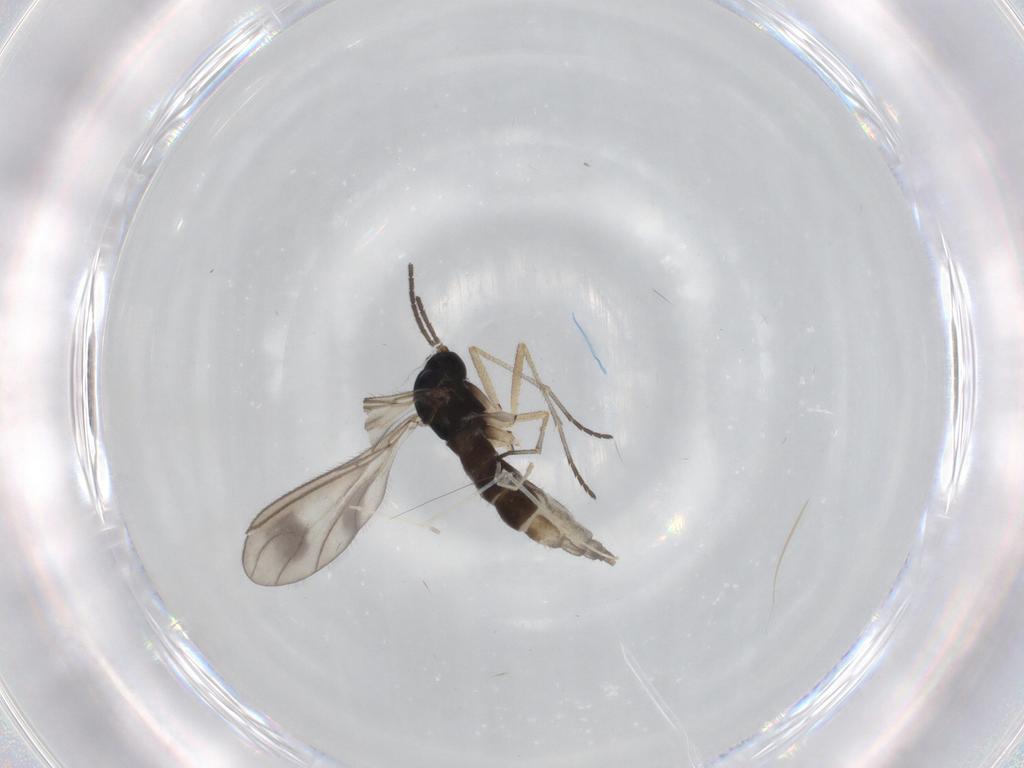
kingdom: Animalia
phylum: Arthropoda
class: Insecta
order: Diptera
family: Sciaridae
